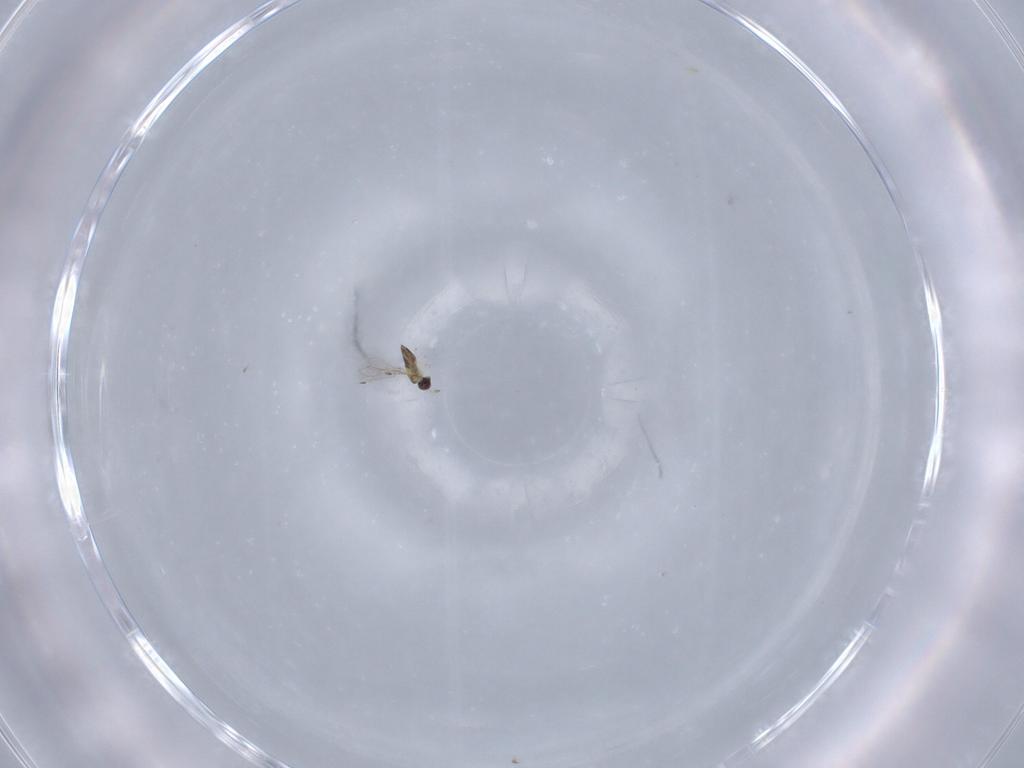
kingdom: Animalia
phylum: Arthropoda
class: Insecta
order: Hymenoptera
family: Mymaridae
